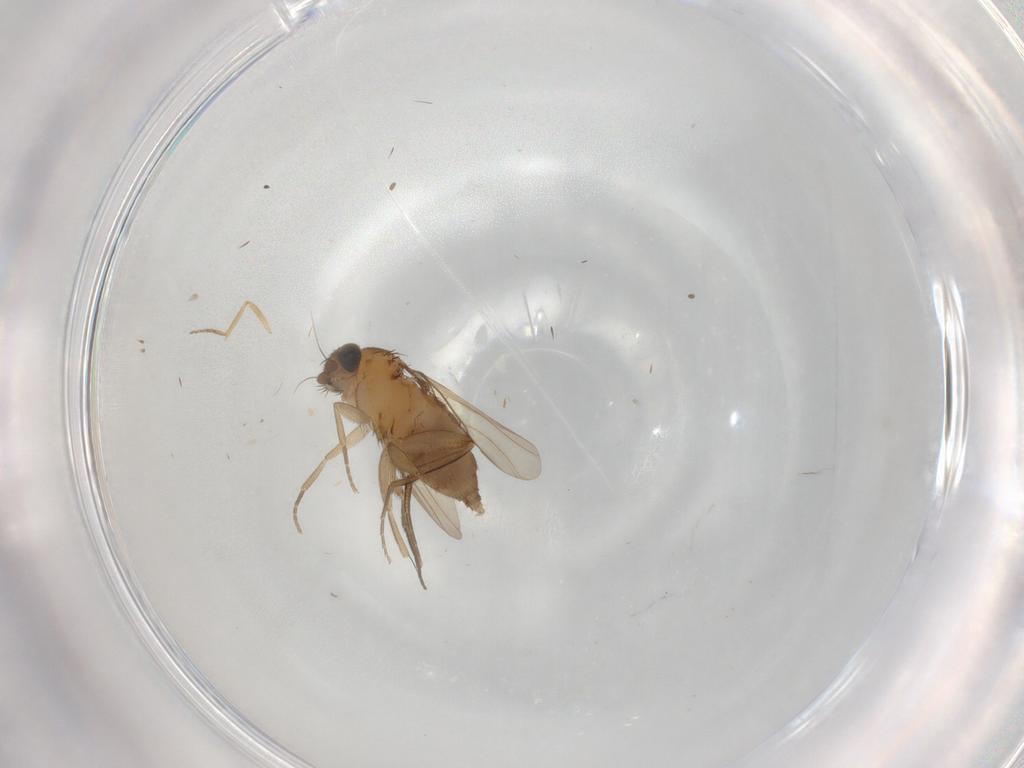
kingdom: Animalia
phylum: Arthropoda
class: Insecta
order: Diptera
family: Phoridae
